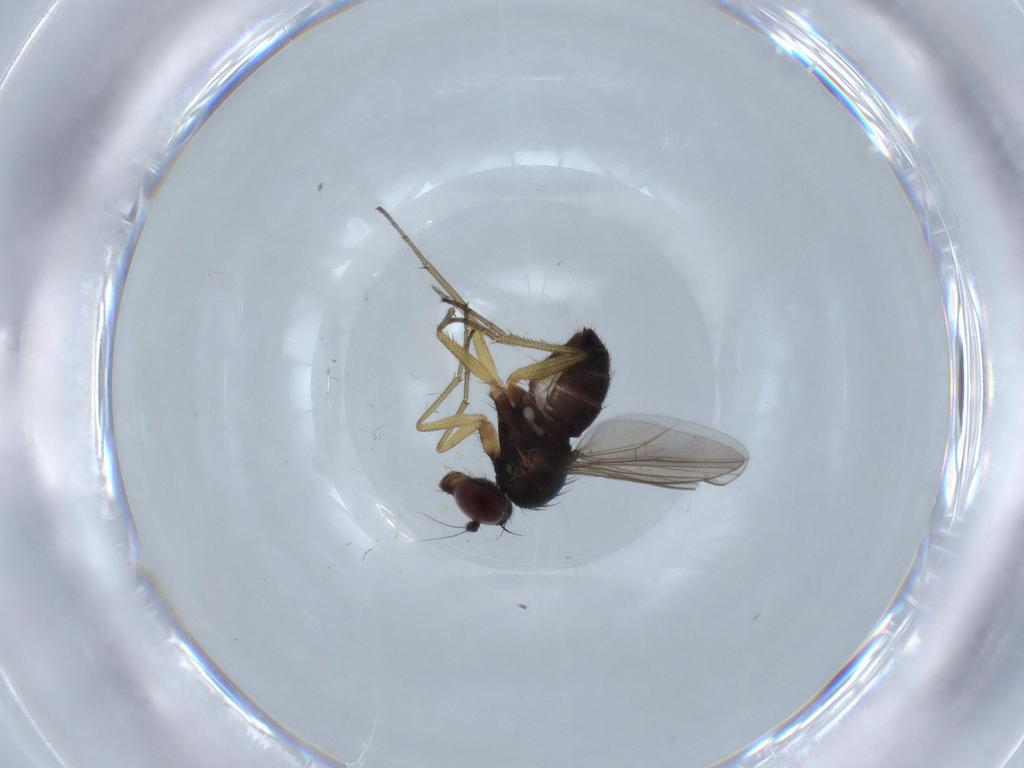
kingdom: Animalia
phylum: Arthropoda
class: Insecta
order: Diptera
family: Dolichopodidae
